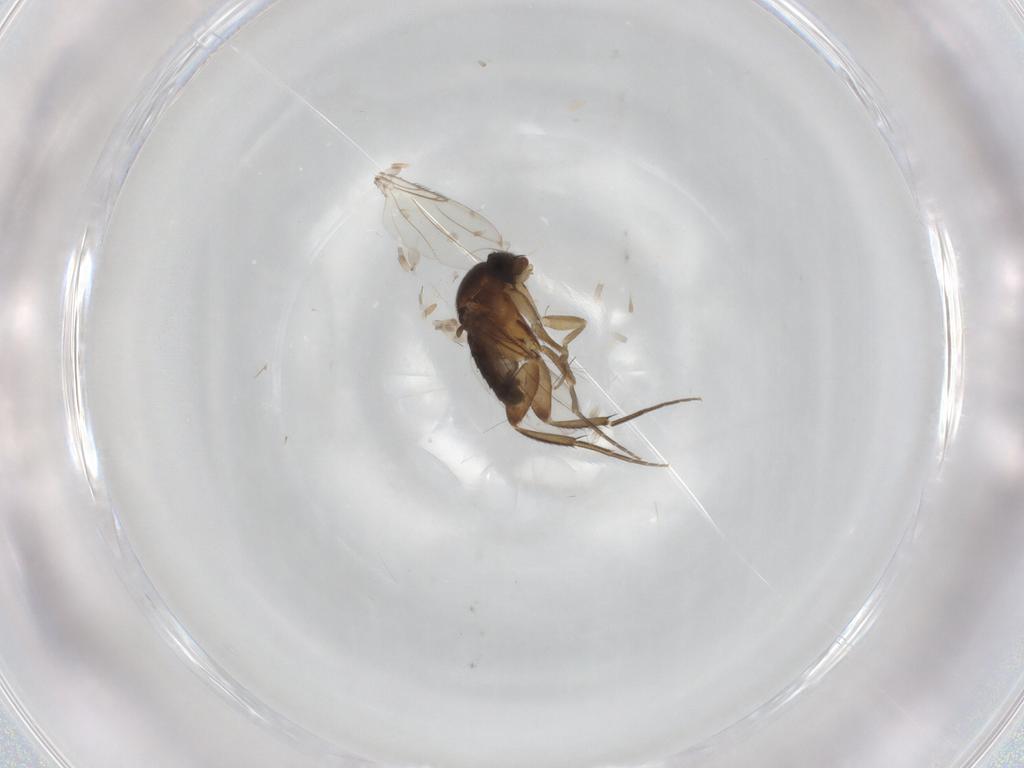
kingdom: Animalia
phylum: Arthropoda
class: Insecta
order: Diptera
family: Phoridae
